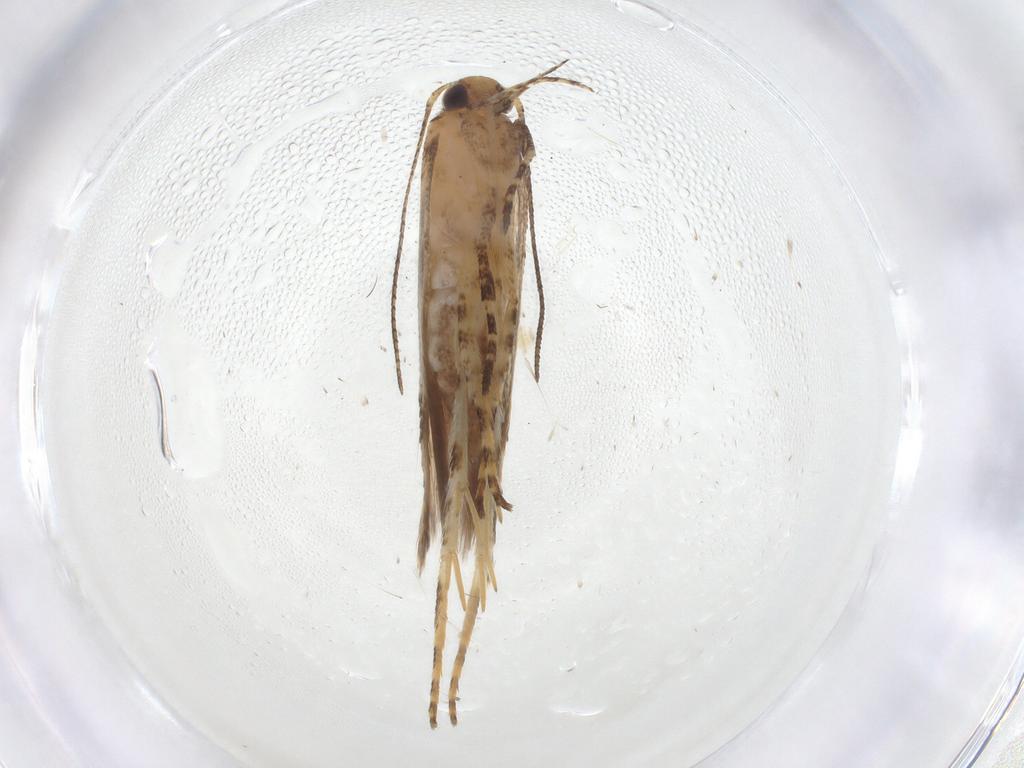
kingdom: Animalia
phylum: Arthropoda
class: Insecta
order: Lepidoptera
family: Gelechiidae
